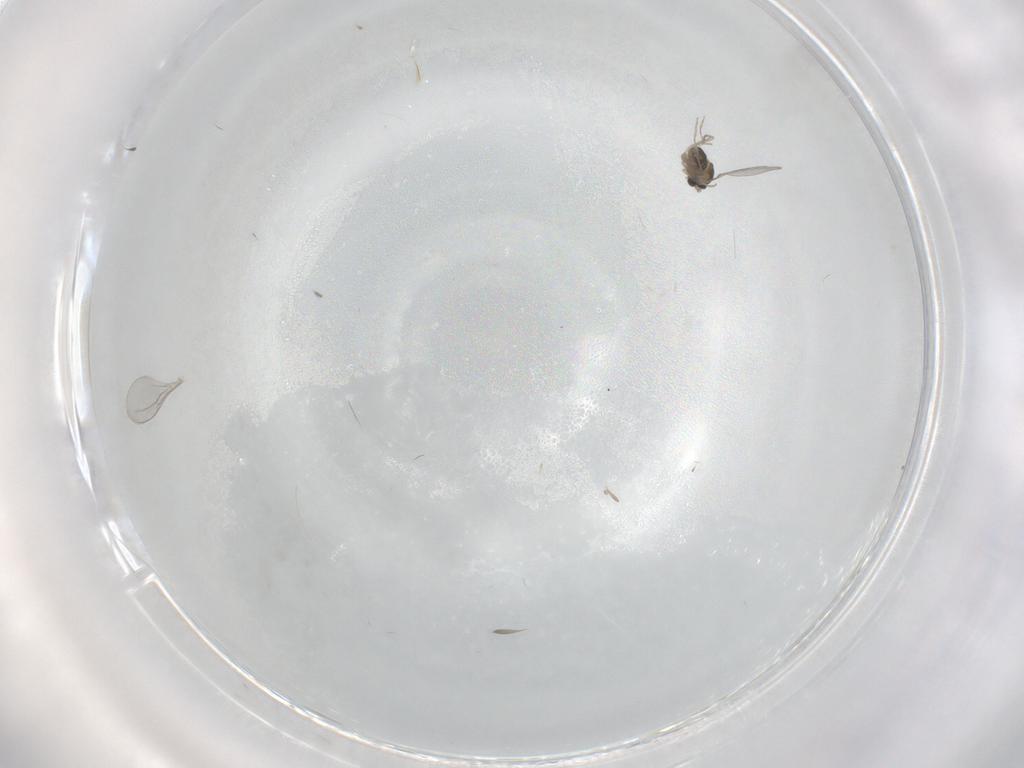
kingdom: Animalia
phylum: Arthropoda
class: Insecta
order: Diptera
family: Cecidomyiidae
